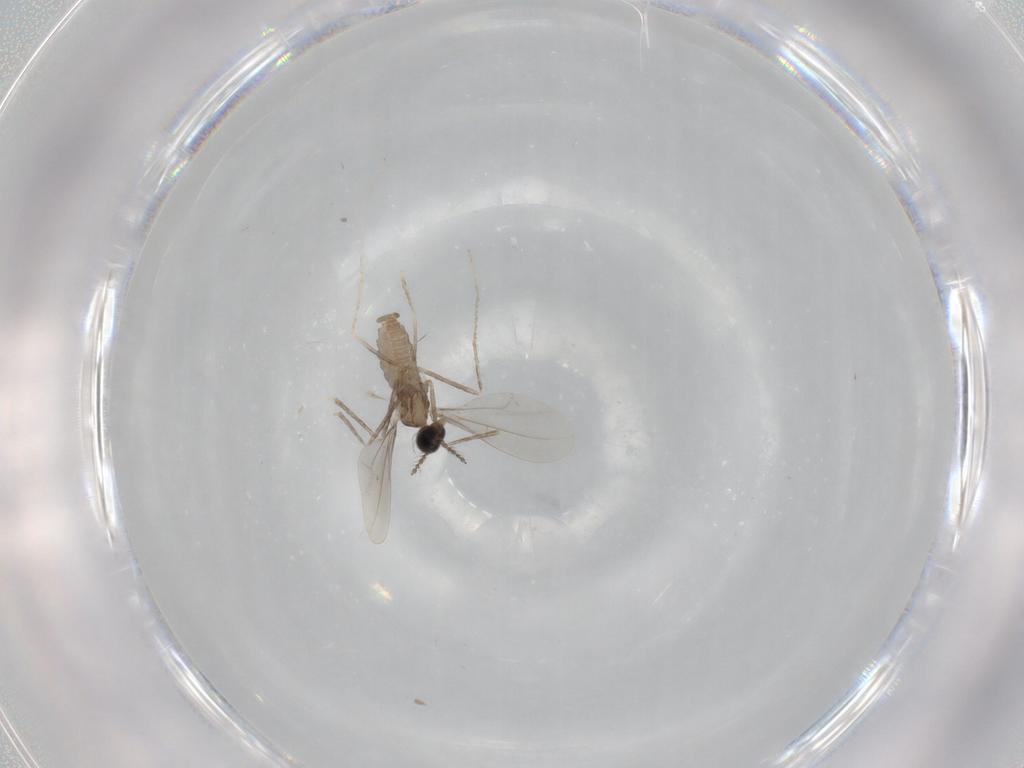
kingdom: Animalia
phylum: Arthropoda
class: Insecta
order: Diptera
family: Cecidomyiidae
